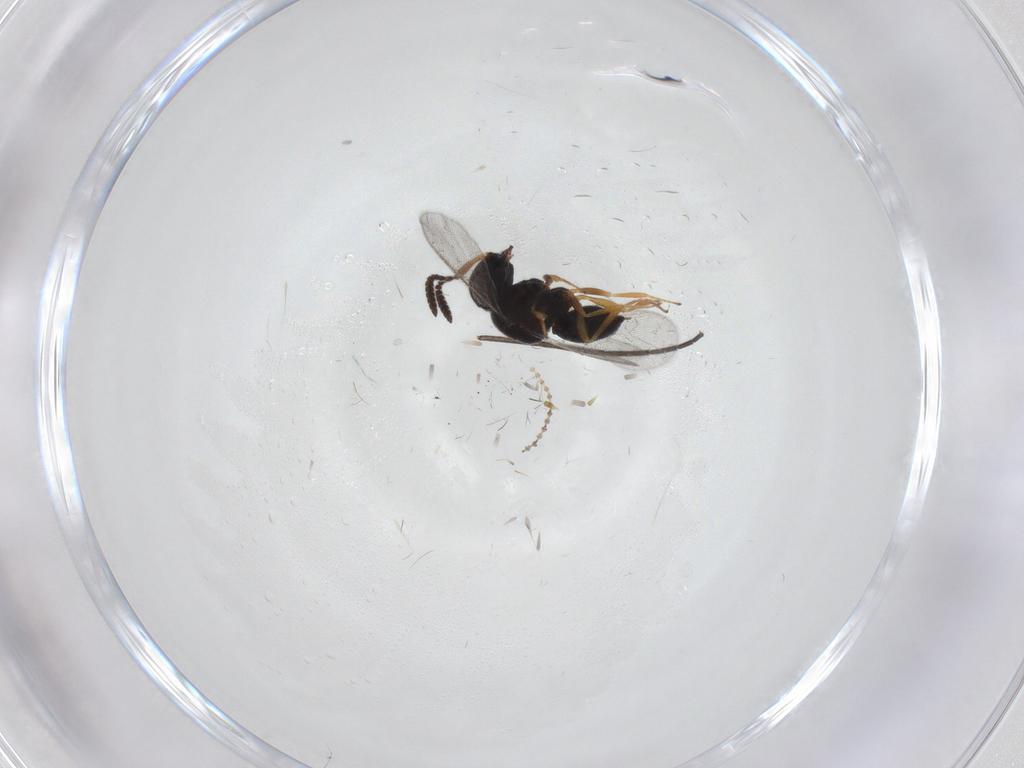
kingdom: Animalia
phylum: Arthropoda
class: Insecta
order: Hymenoptera
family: Scelionidae
